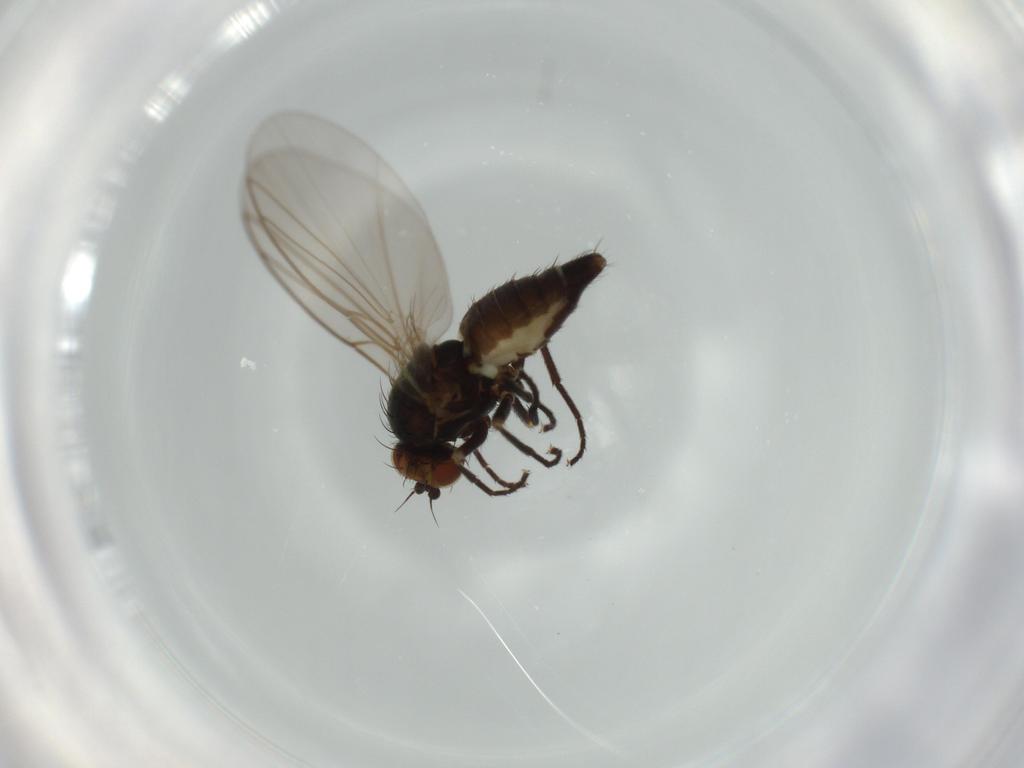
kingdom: Animalia
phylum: Arthropoda
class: Insecta
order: Diptera
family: Agromyzidae
